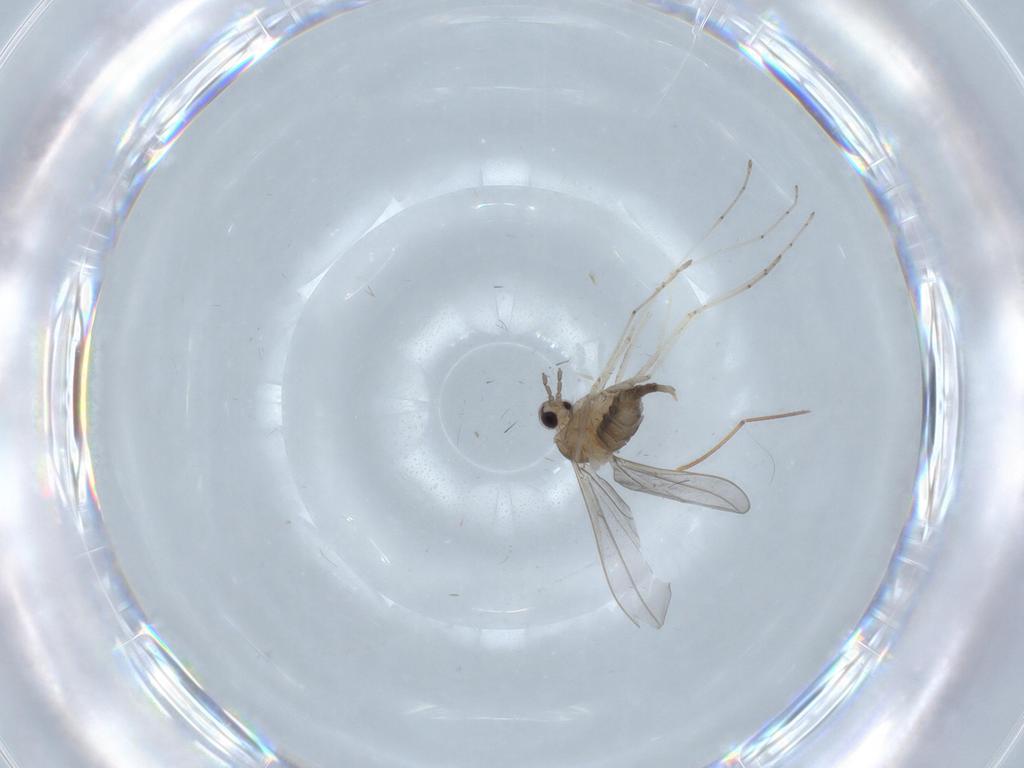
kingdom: Animalia
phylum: Arthropoda
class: Insecta
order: Diptera
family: Cecidomyiidae
